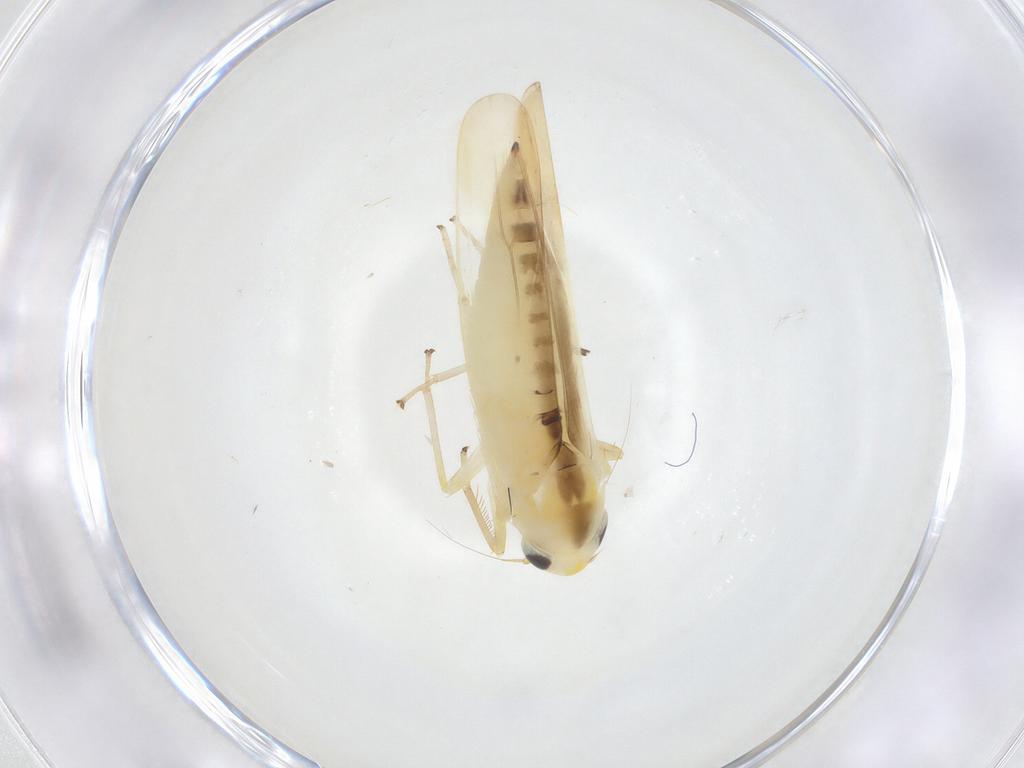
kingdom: Animalia
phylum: Arthropoda
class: Insecta
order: Hemiptera
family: Cicadellidae
